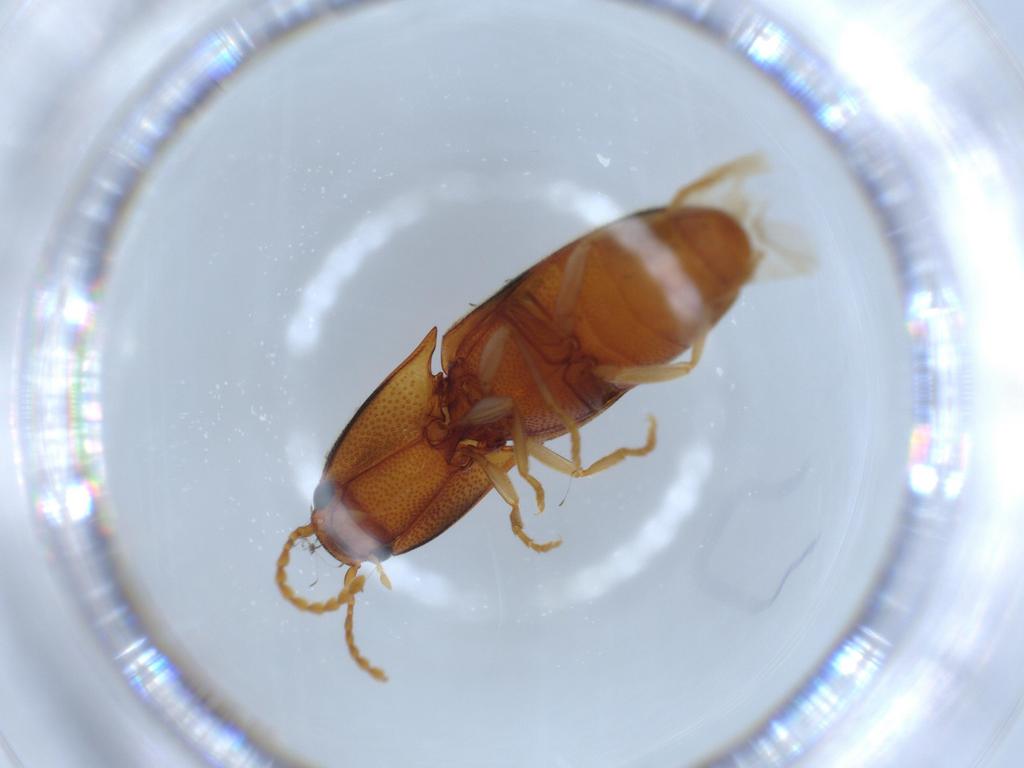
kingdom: Animalia
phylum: Arthropoda
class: Insecta
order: Coleoptera
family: Elateridae
